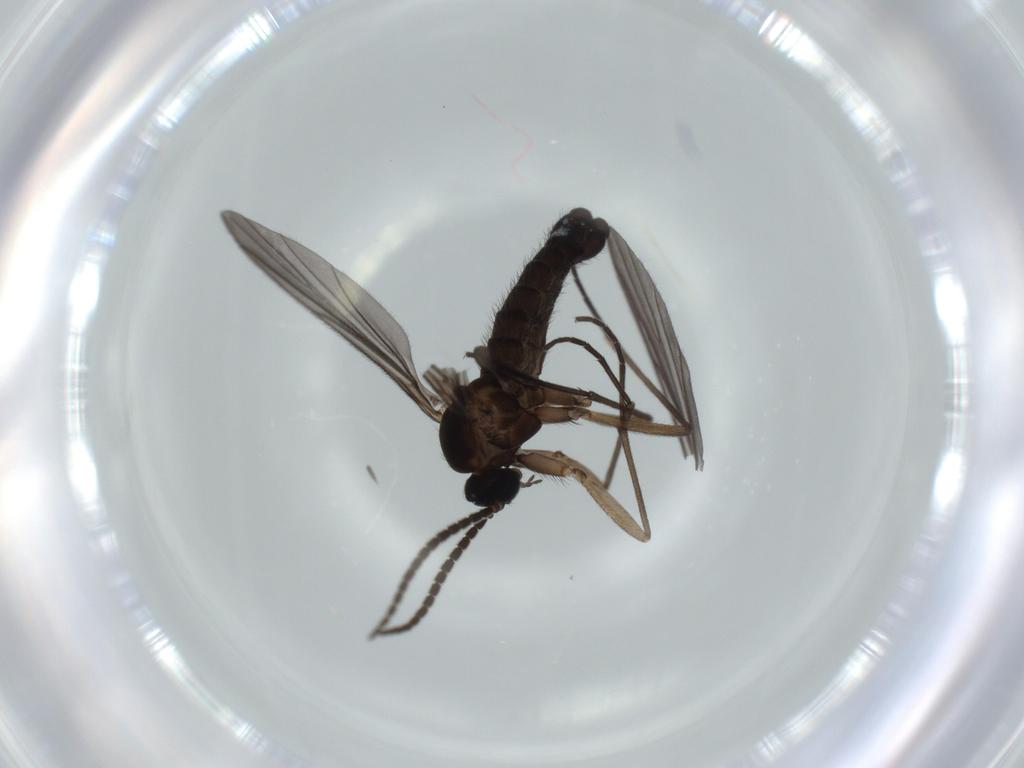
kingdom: Animalia
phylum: Arthropoda
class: Insecta
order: Diptera
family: Sciaridae
